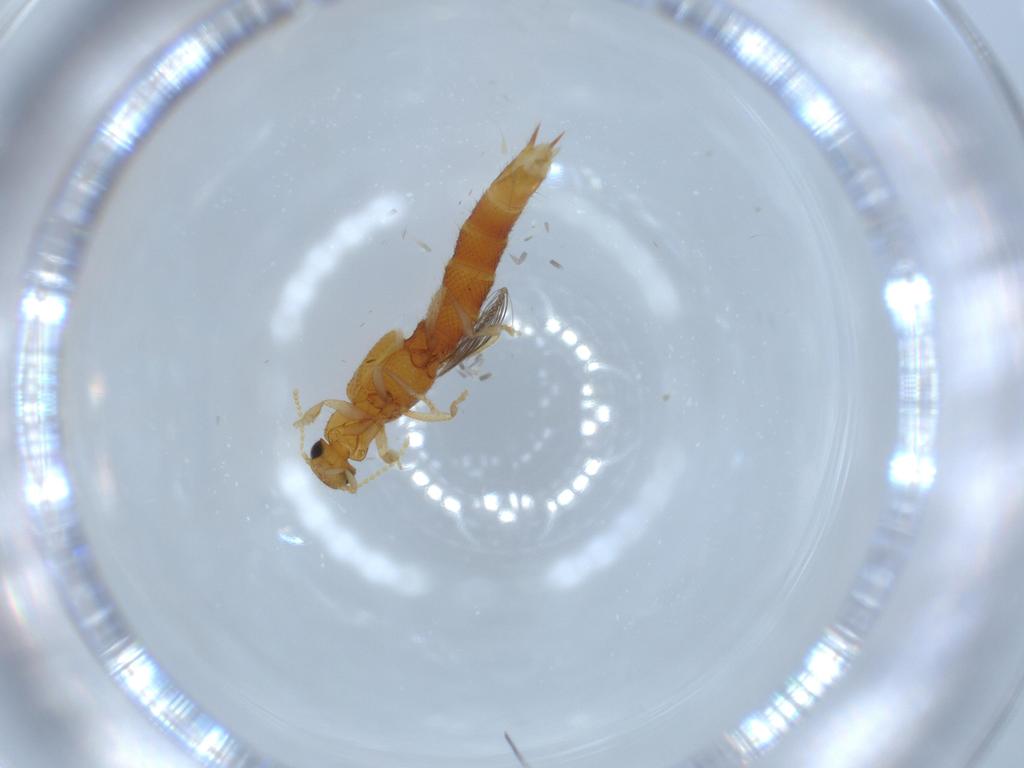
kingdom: Animalia
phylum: Arthropoda
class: Insecta
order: Coleoptera
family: Staphylinidae
